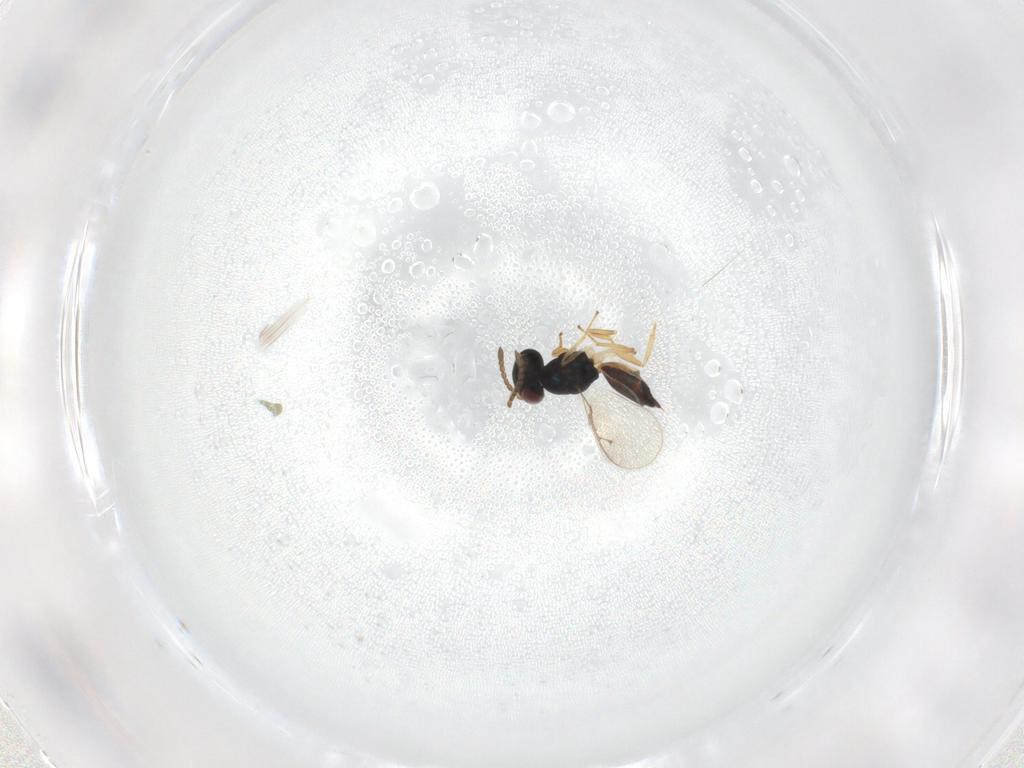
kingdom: Animalia
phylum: Arthropoda
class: Insecta
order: Hymenoptera
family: Pteromalidae
